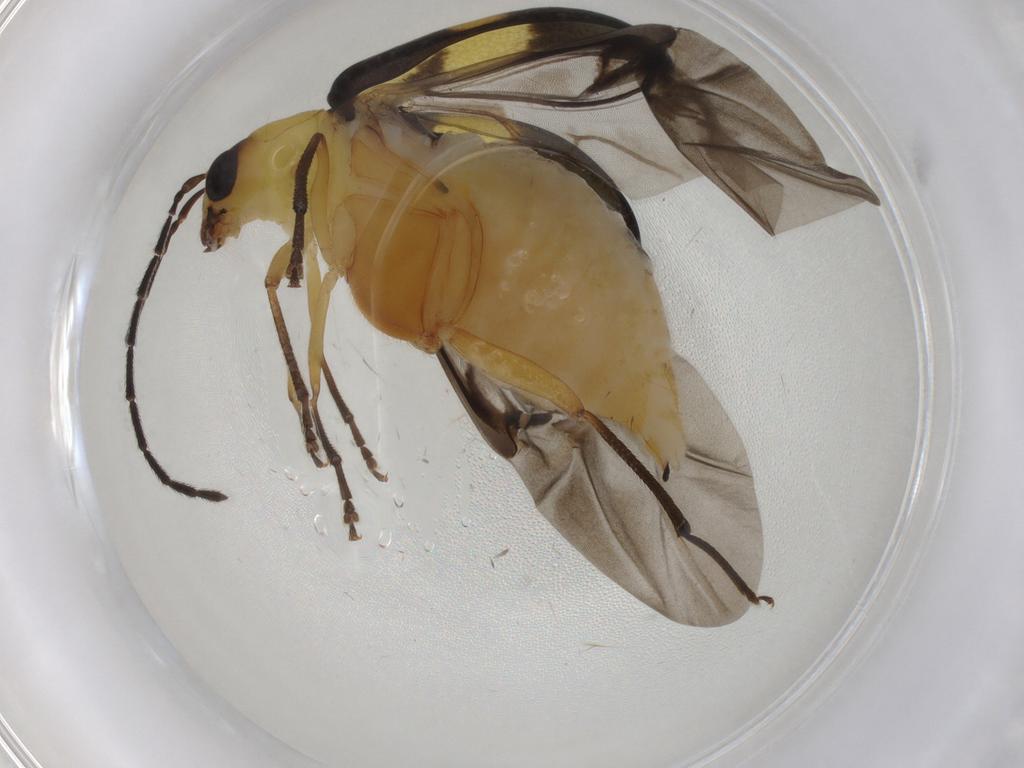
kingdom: Animalia
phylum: Arthropoda
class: Insecta
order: Coleoptera
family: Chrysomelidae
